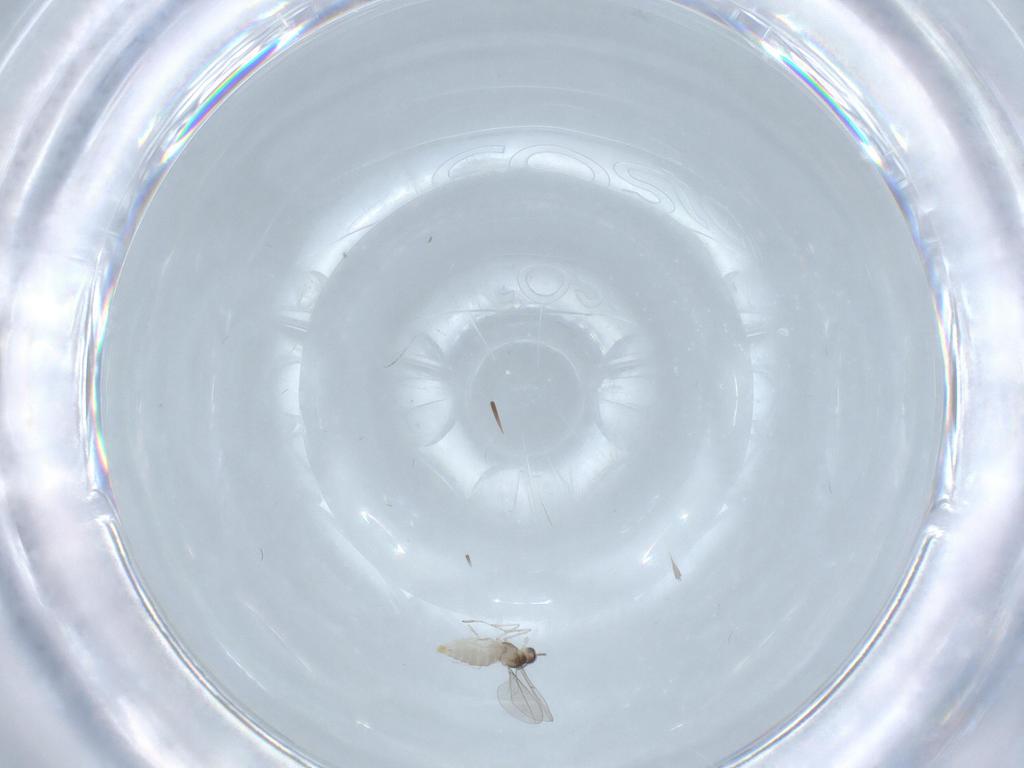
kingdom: Animalia
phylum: Arthropoda
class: Insecta
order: Diptera
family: Cecidomyiidae
